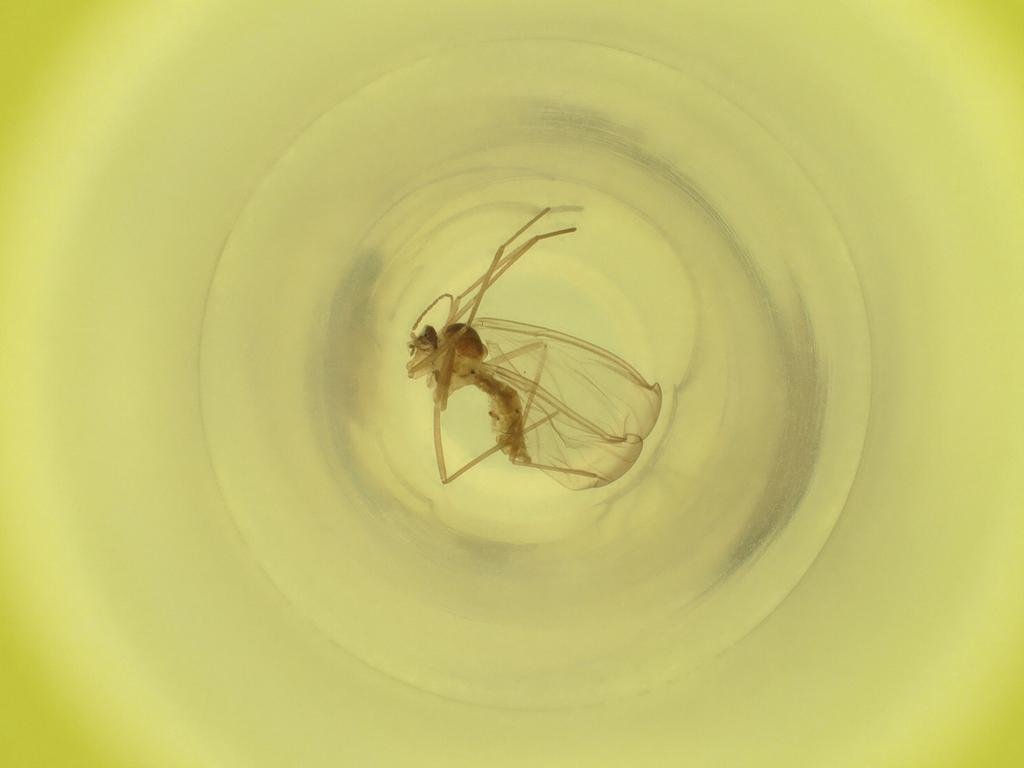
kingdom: Animalia
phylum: Arthropoda
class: Insecta
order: Diptera
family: Cecidomyiidae
